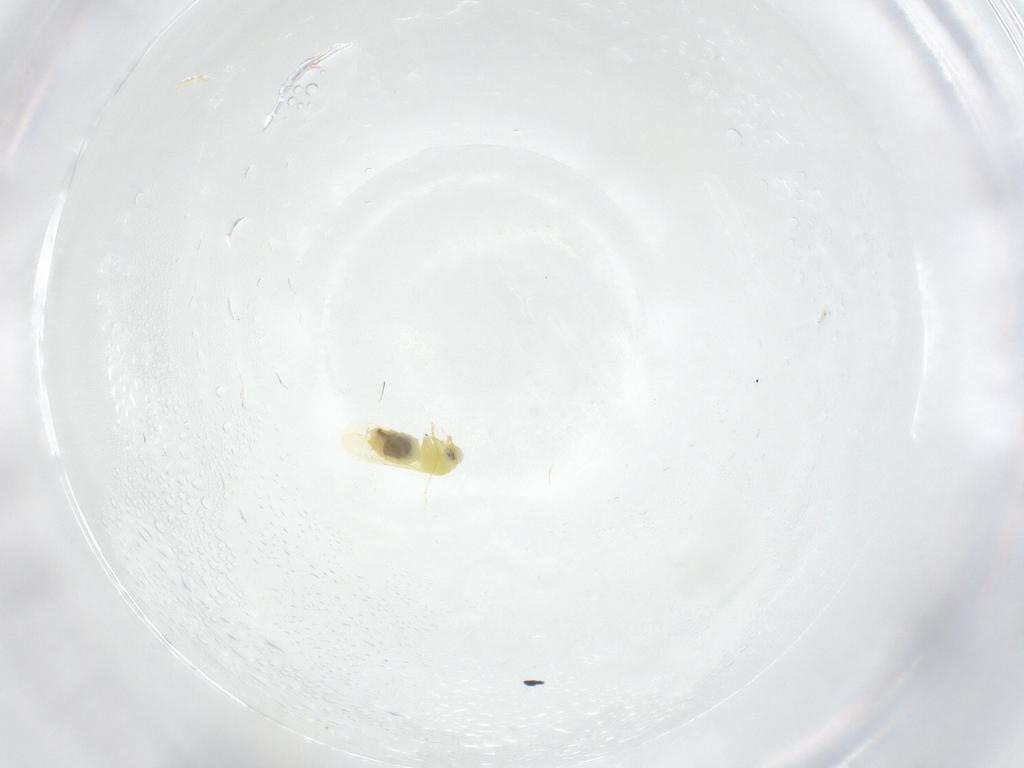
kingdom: Animalia
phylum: Arthropoda
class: Insecta
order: Hemiptera
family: Aleyrodidae
